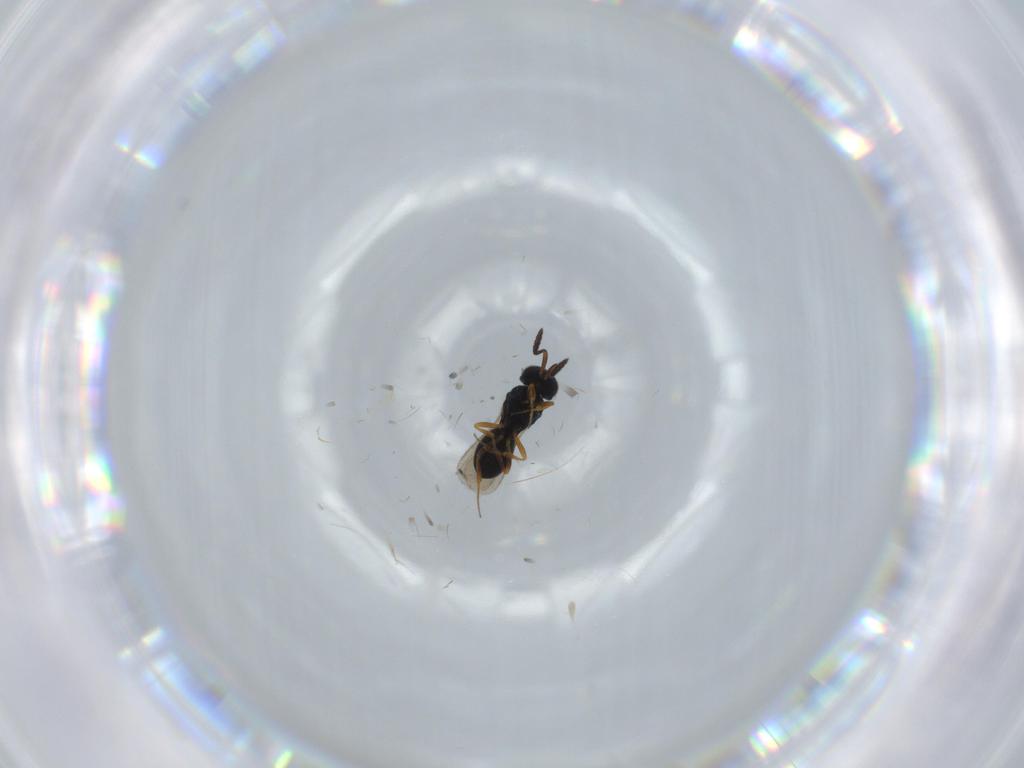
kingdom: Animalia
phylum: Arthropoda
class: Insecta
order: Hymenoptera
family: Scelionidae
